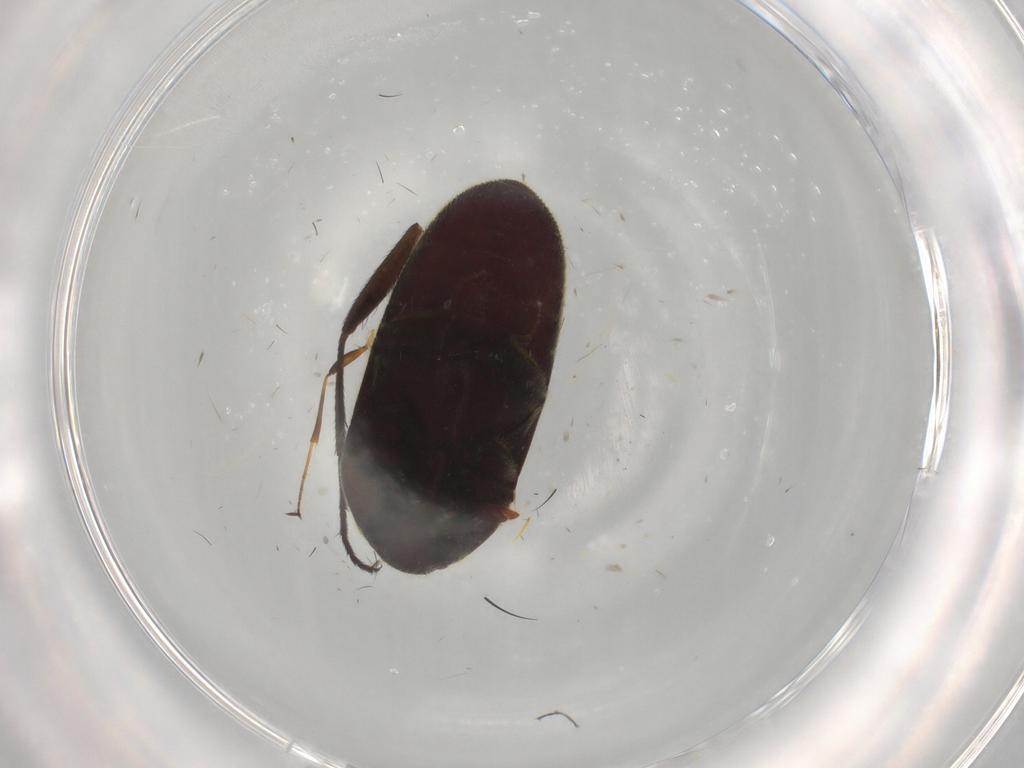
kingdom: Animalia
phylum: Arthropoda
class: Insecta
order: Coleoptera
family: Throscidae
